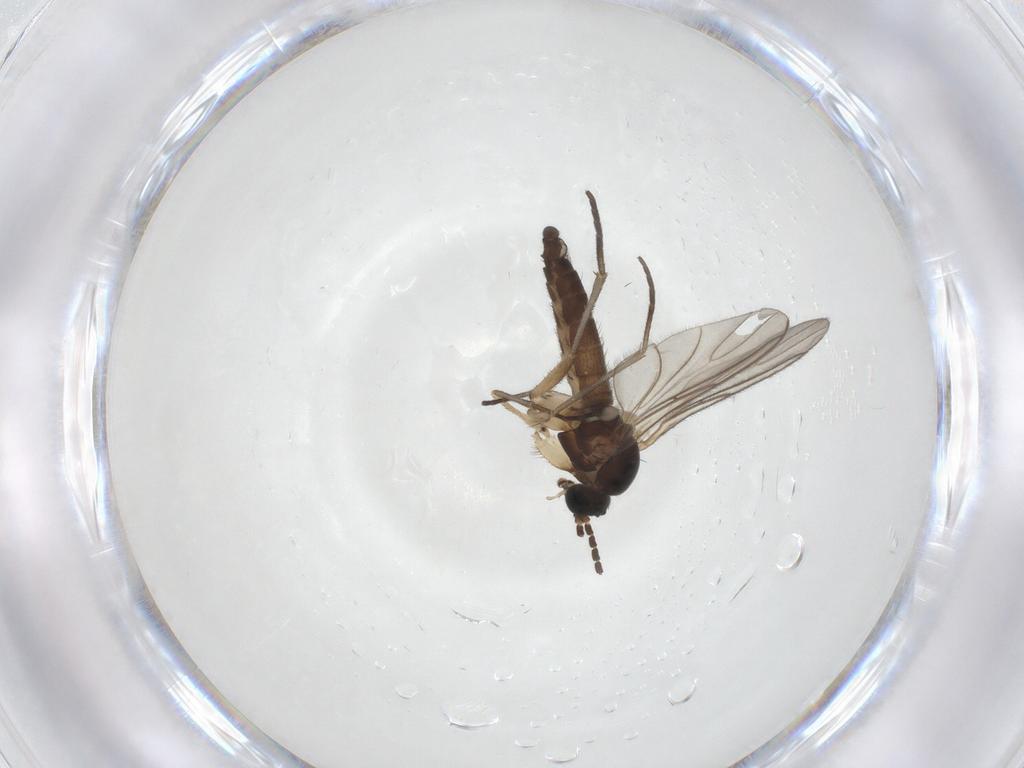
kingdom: Animalia
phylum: Arthropoda
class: Insecta
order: Diptera
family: Sciaridae
